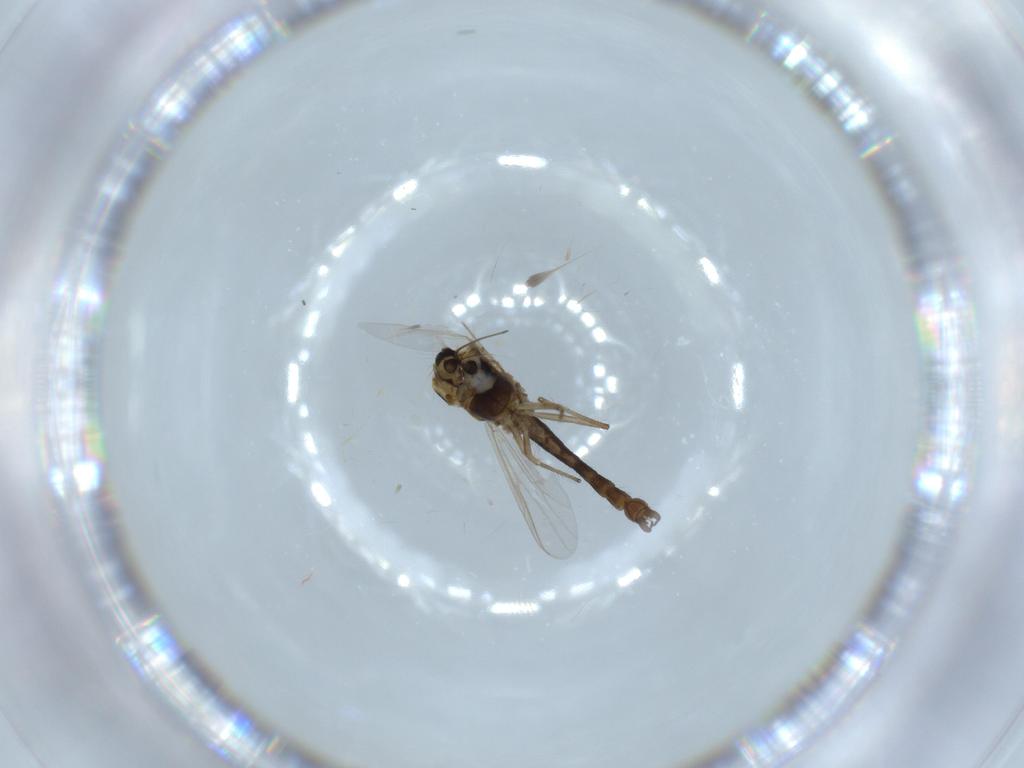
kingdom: Animalia
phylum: Arthropoda
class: Insecta
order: Diptera
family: Chironomidae
